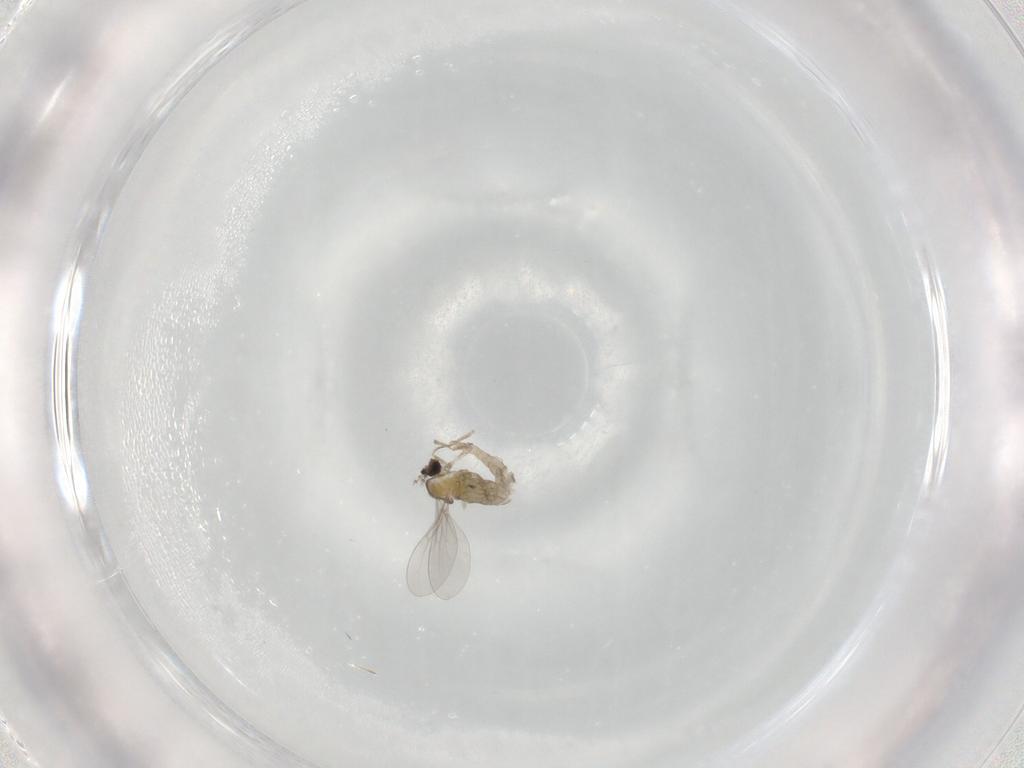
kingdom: Animalia
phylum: Arthropoda
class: Insecta
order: Diptera
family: Cecidomyiidae
